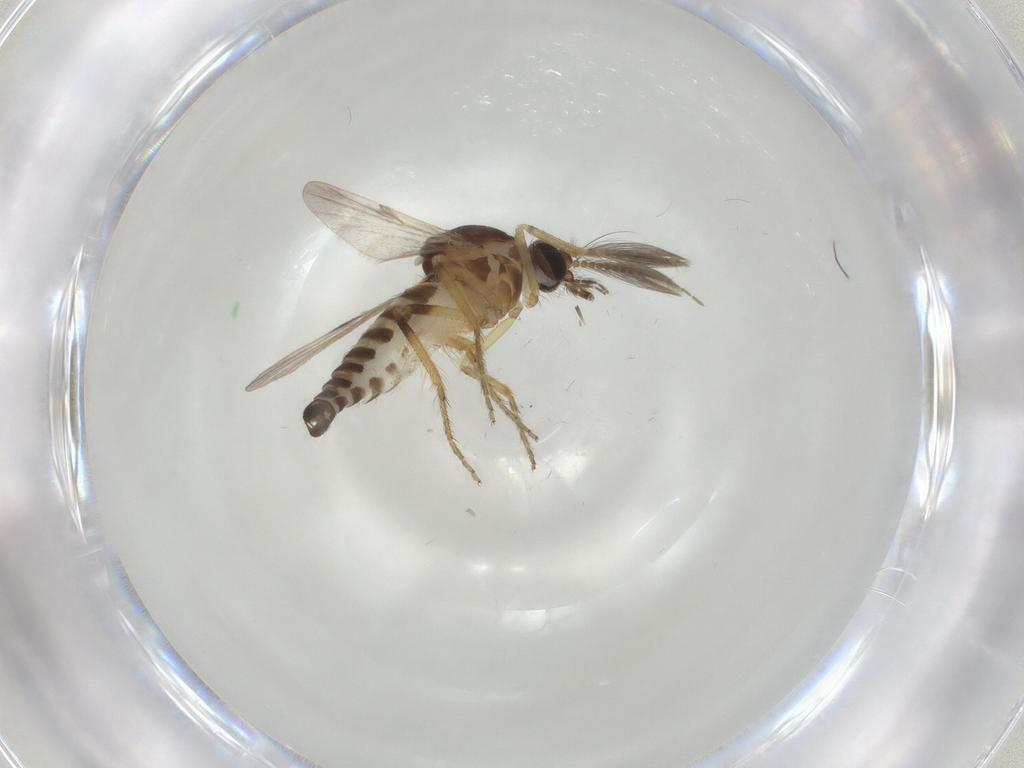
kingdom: Animalia
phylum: Arthropoda
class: Insecta
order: Diptera
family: Ceratopogonidae
